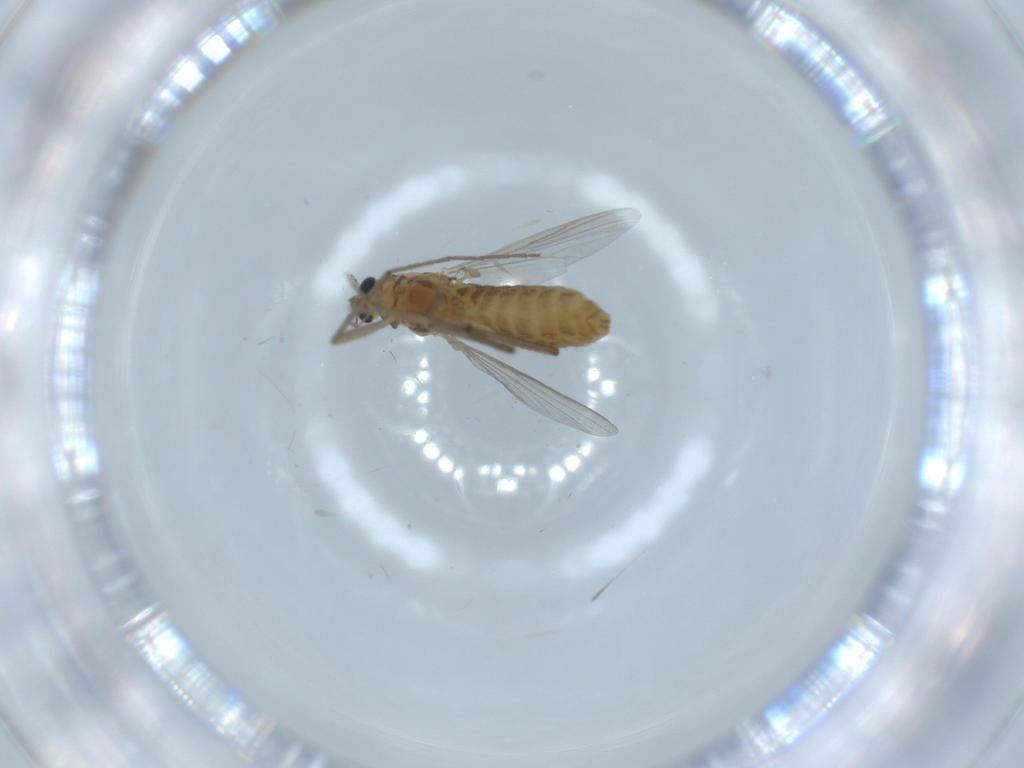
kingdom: Animalia
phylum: Arthropoda
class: Insecta
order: Diptera
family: Chironomidae
